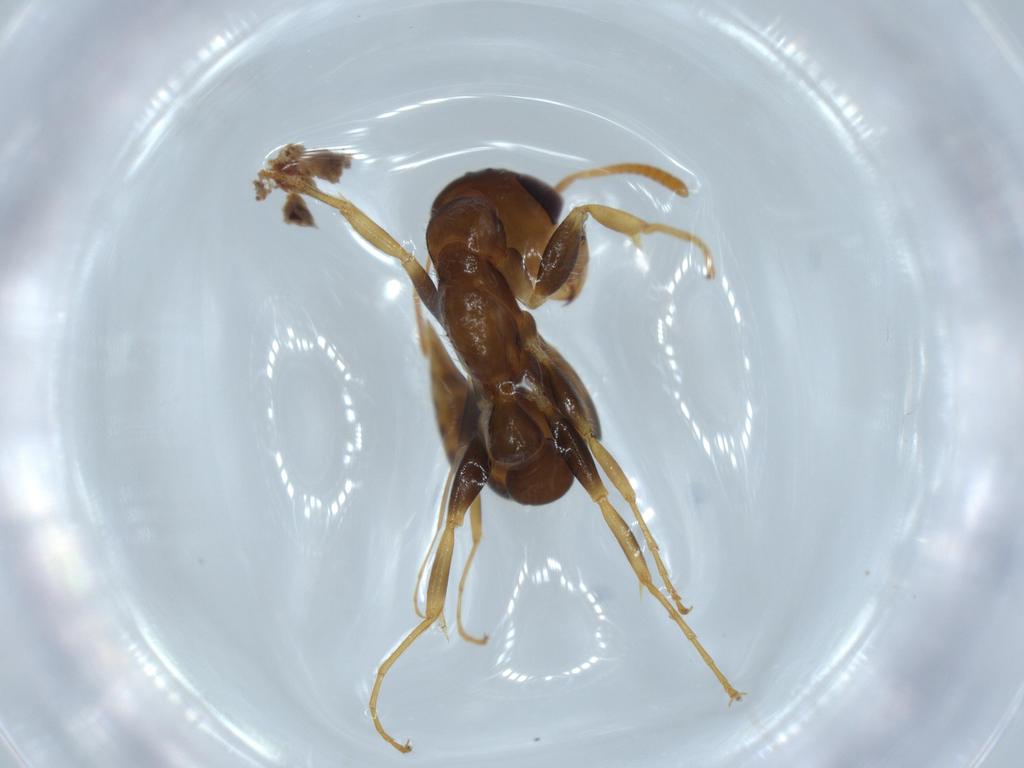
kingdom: Animalia
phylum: Arthropoda
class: Insecta
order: Hymenoptera
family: Formicidae
